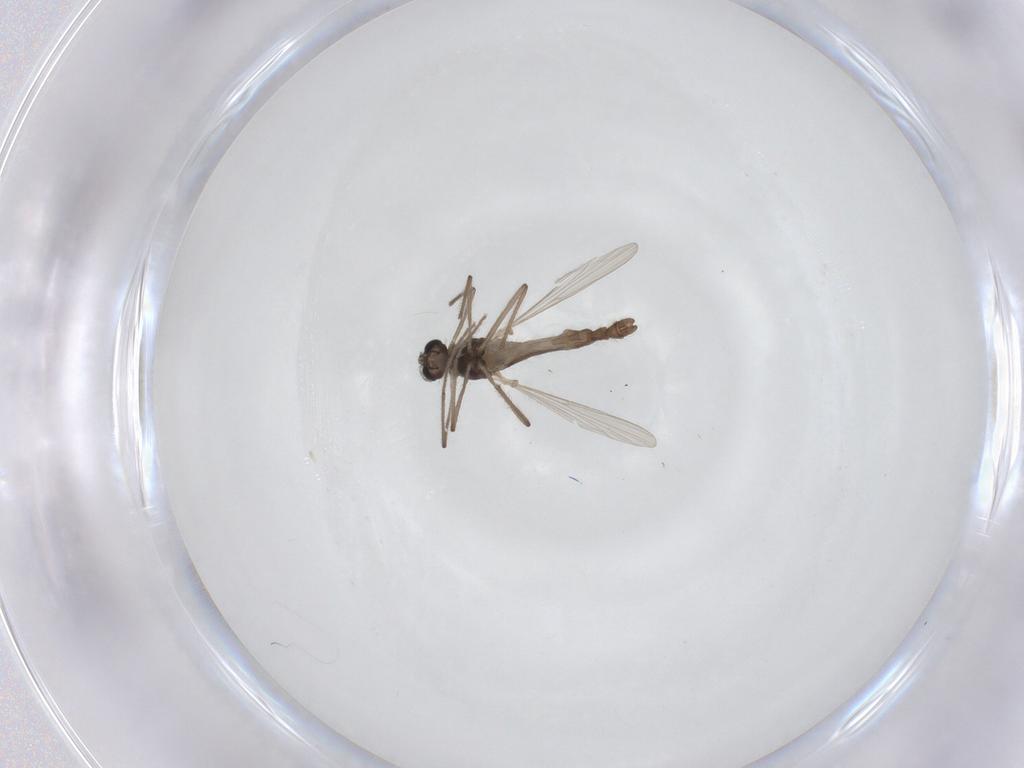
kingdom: Animalia
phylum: Arthropoda
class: Insecta
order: Diptera
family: Chironomidae
